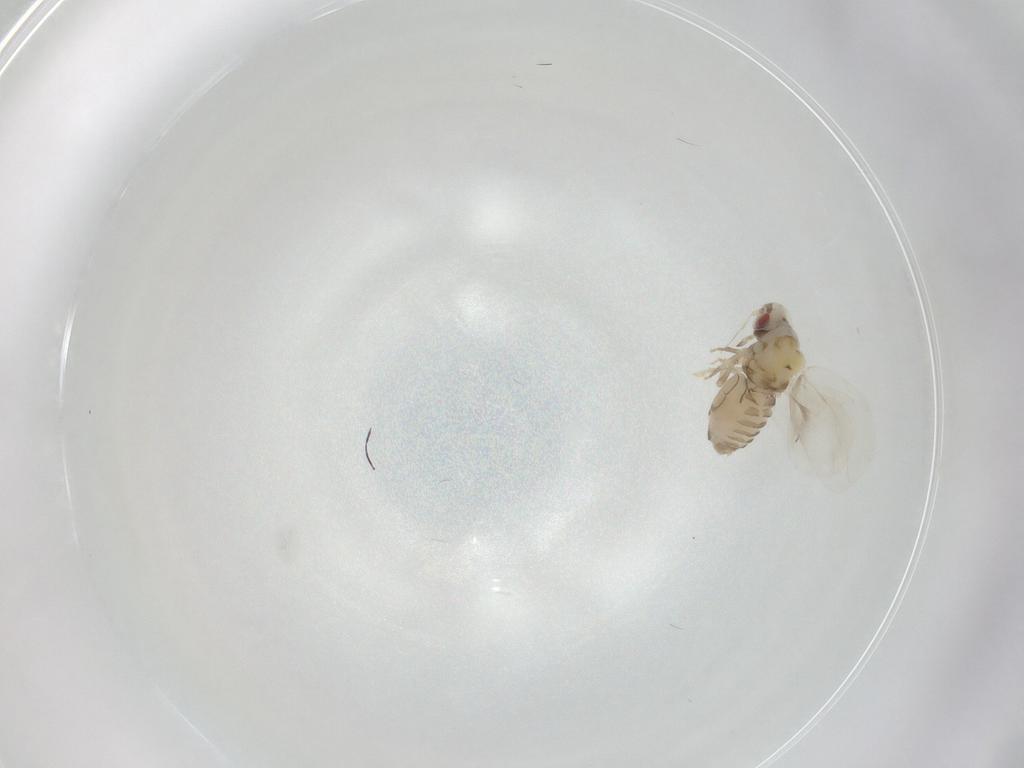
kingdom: Animalia
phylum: Arthropoda
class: Insecta
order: Hemiptera
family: Aleyrodidae
